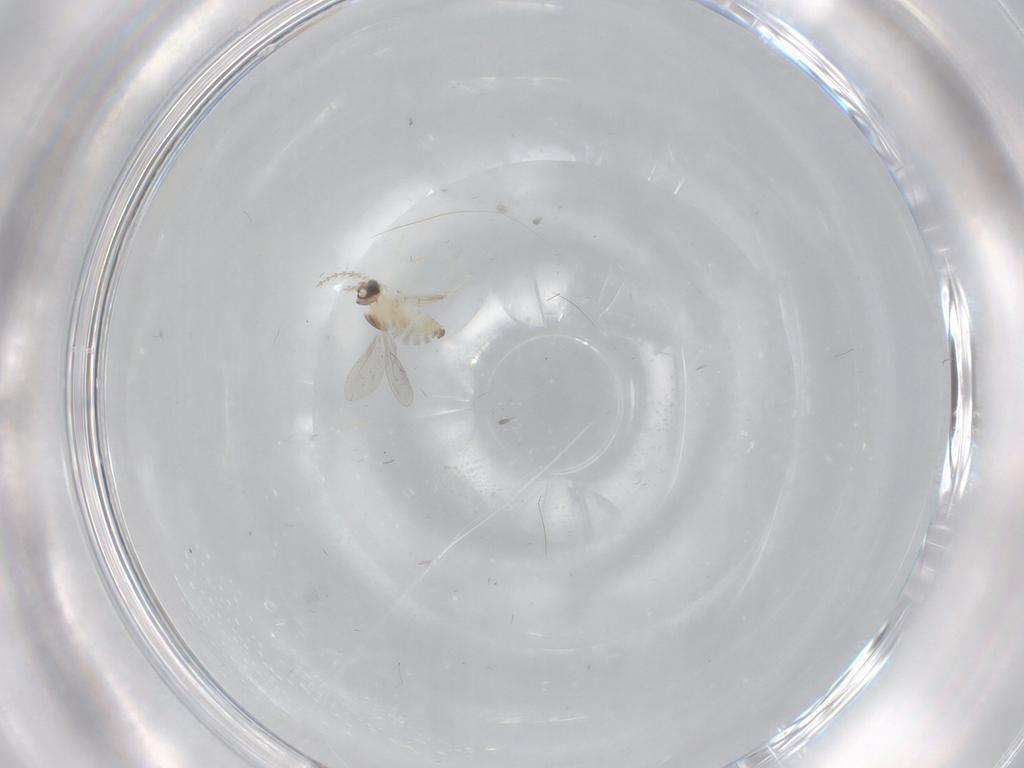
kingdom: Animalia
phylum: Arthropoda
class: Insecta
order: Diptera
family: Cecidomyiidae
